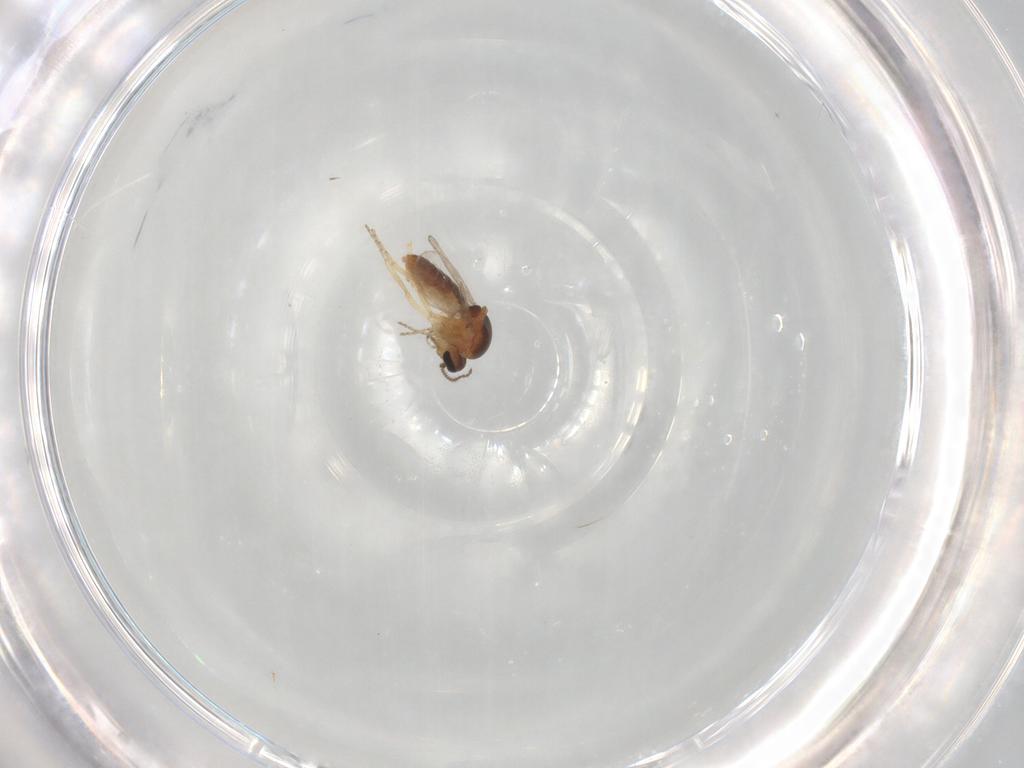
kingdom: Animalia
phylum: Arthropoda
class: Insecta
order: Diptera
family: Ceratopogonidae
